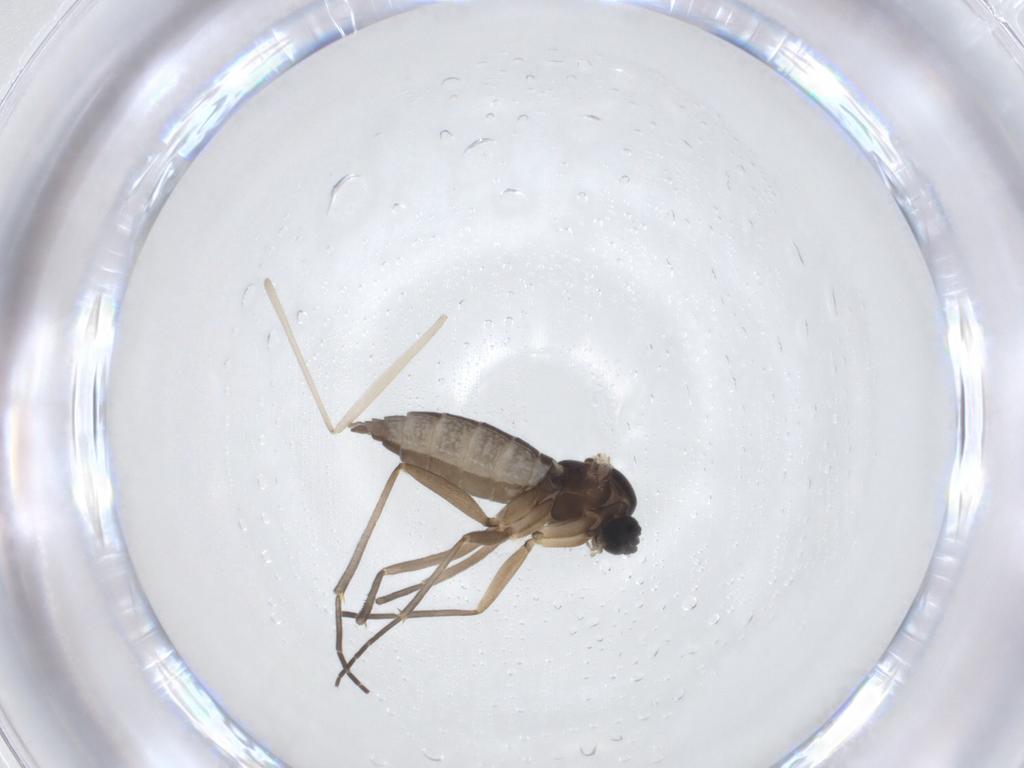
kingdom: Animalia
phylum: Arthropoda
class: Insecta
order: Diptera
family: Sciaridae
